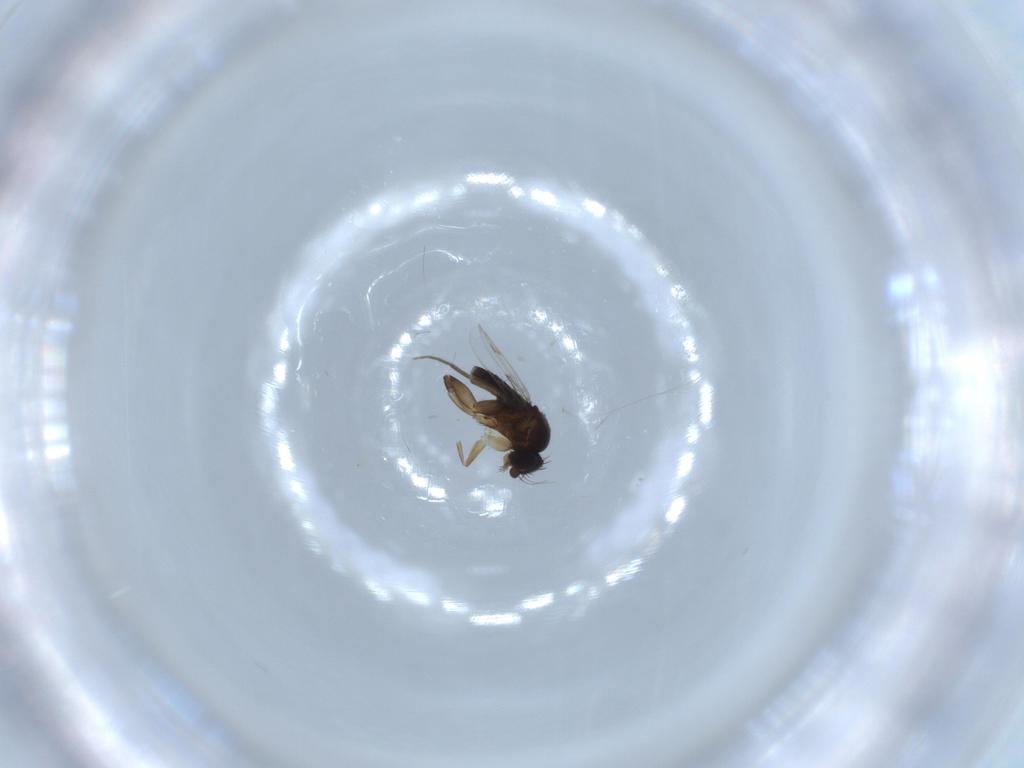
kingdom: Animalia
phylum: Arthropoda
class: Insecta
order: Diptera
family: Phoridae
